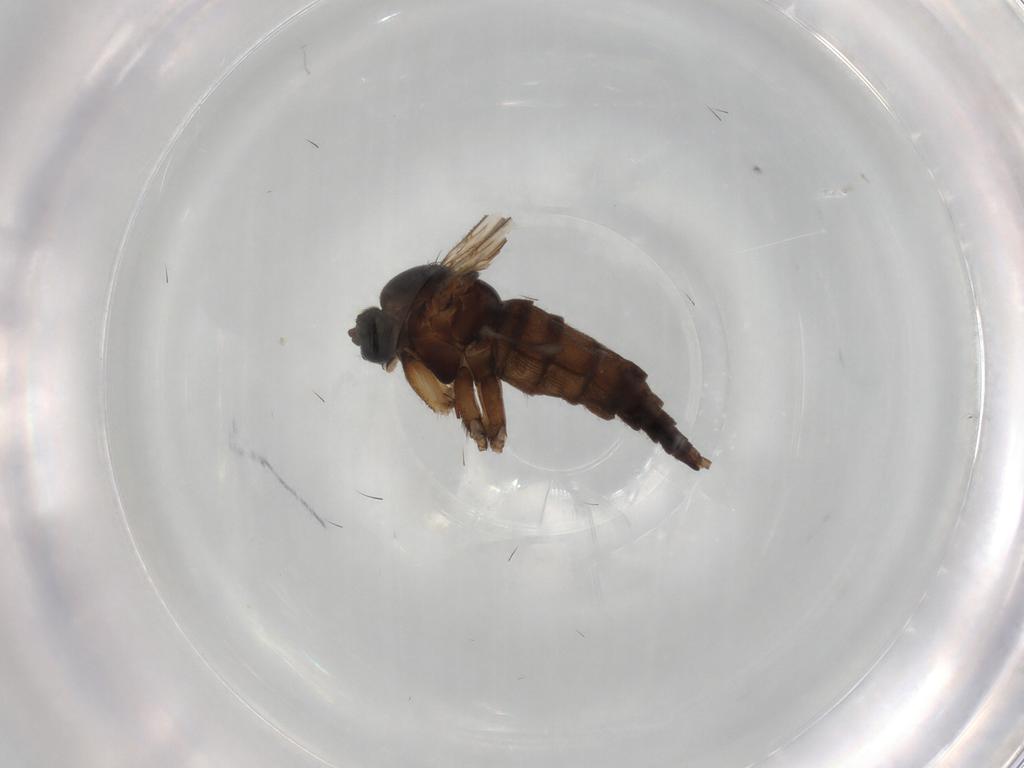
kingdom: Animalia
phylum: Arthropoda
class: Insecta
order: Diptera
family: Sciaridae
